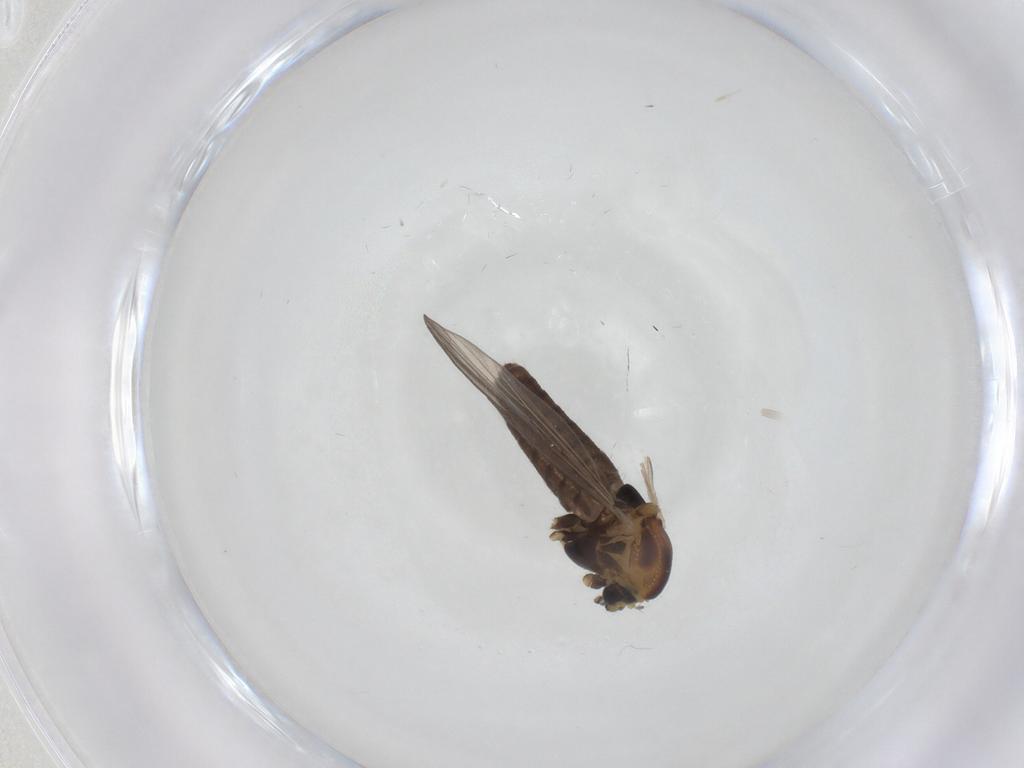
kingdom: Animalia
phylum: Arthropoda
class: Insecta
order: Diptera
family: Chironomidae
